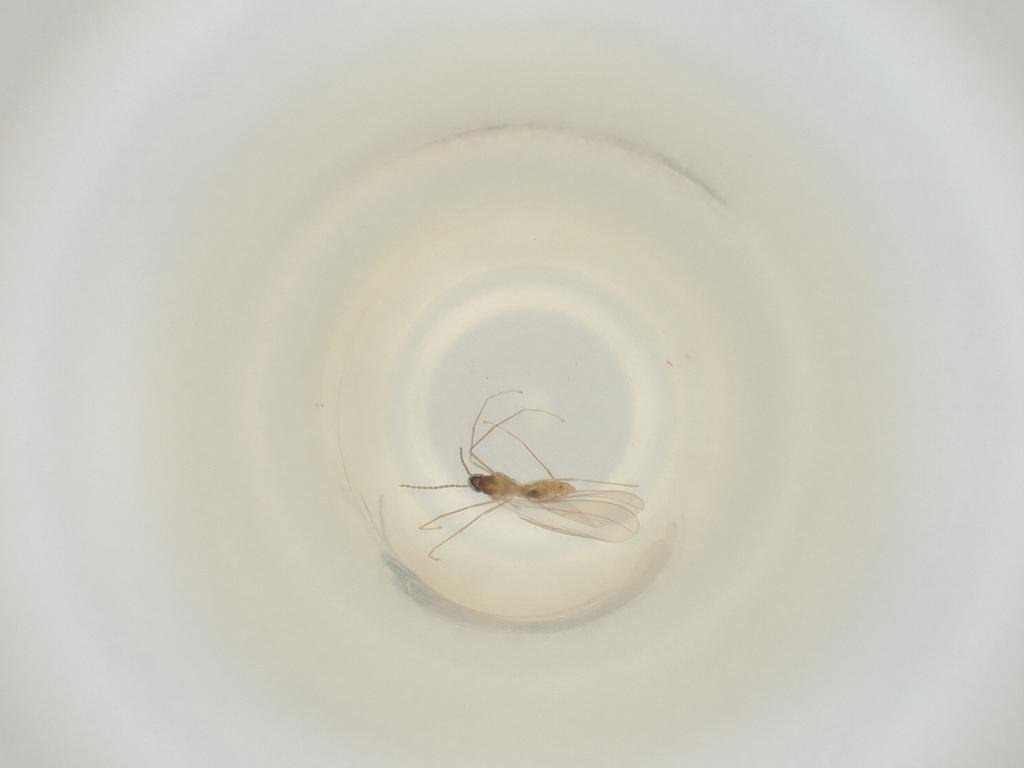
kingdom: Animalia
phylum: Arthropoda
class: Insecta
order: Diptera
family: Cecidomyiidae
